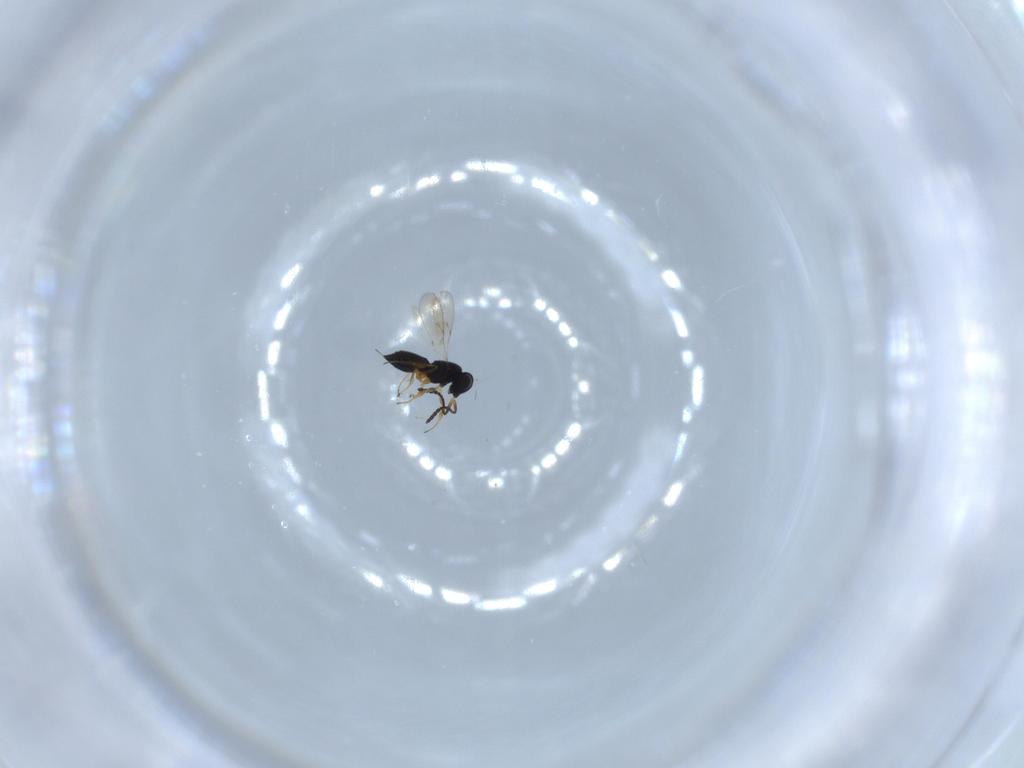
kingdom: Animalia
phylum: Arthropoda
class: Insecta
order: Hymenoptera
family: Scelionidae
